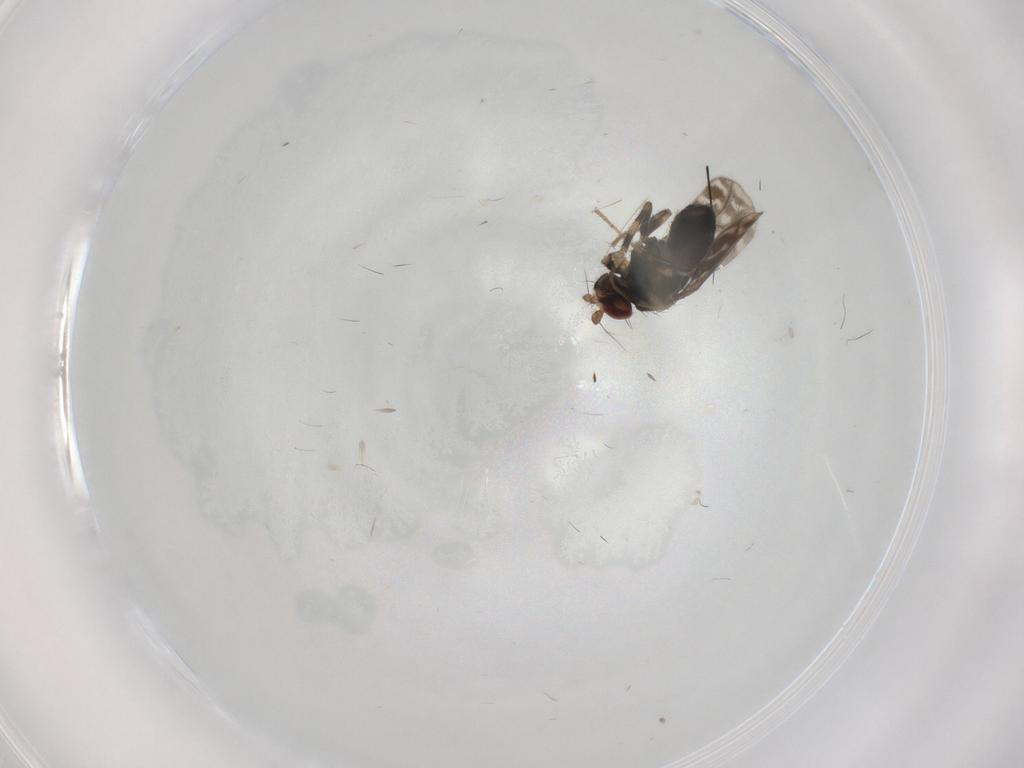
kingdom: Animalia
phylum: Arthropoda
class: Insecta
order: Diptera
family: Sphaeroceridae
